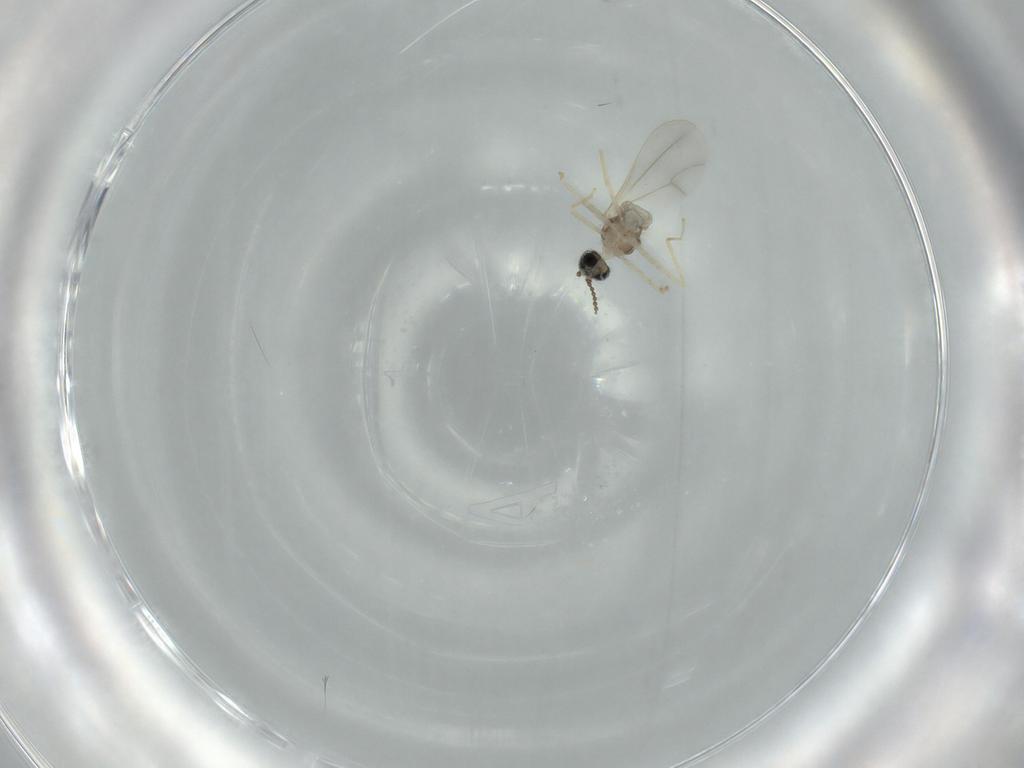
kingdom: Animalia
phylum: Arthropoda
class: Insecta
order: Diptera
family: Cecidomyiidae
